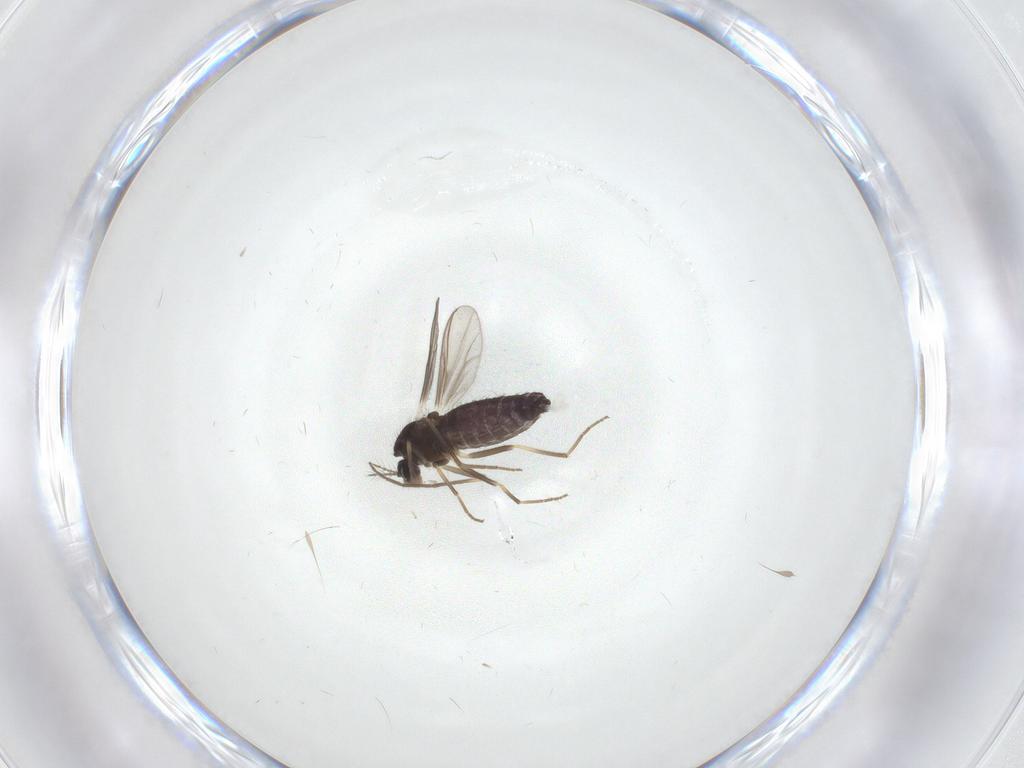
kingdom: Animalia
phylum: Arthropoda
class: Insecta
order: Diptera
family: Chironomidae
